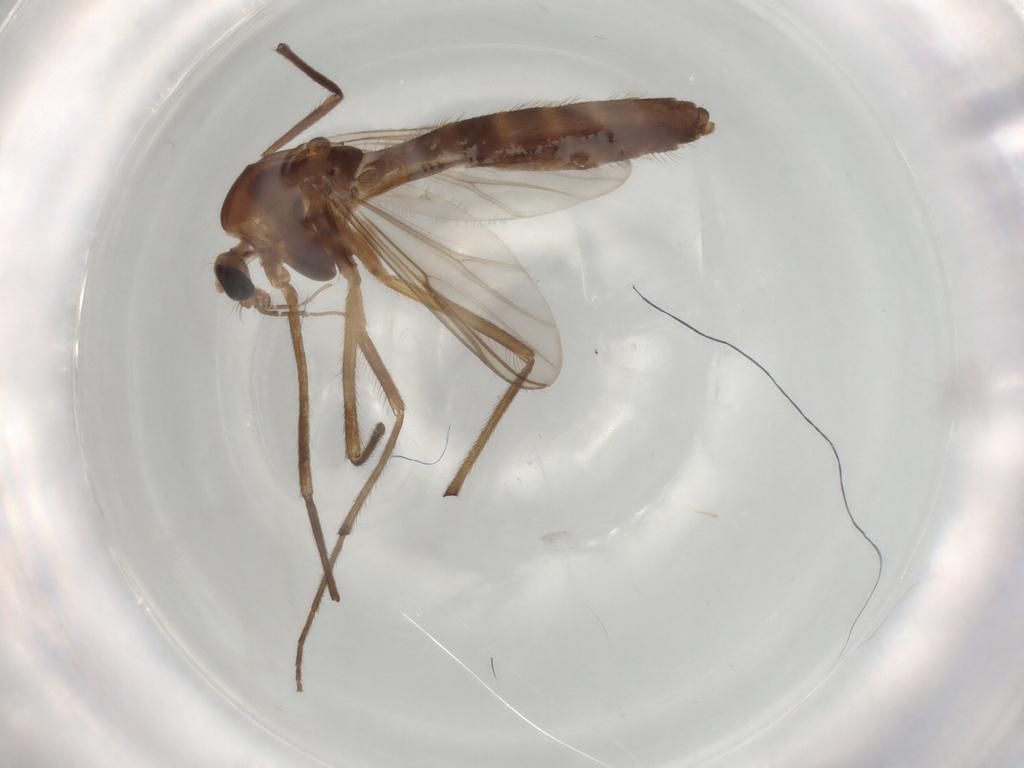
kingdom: Animalia
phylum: Arthropoda
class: Insecta
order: Diptera
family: Chironomidae
